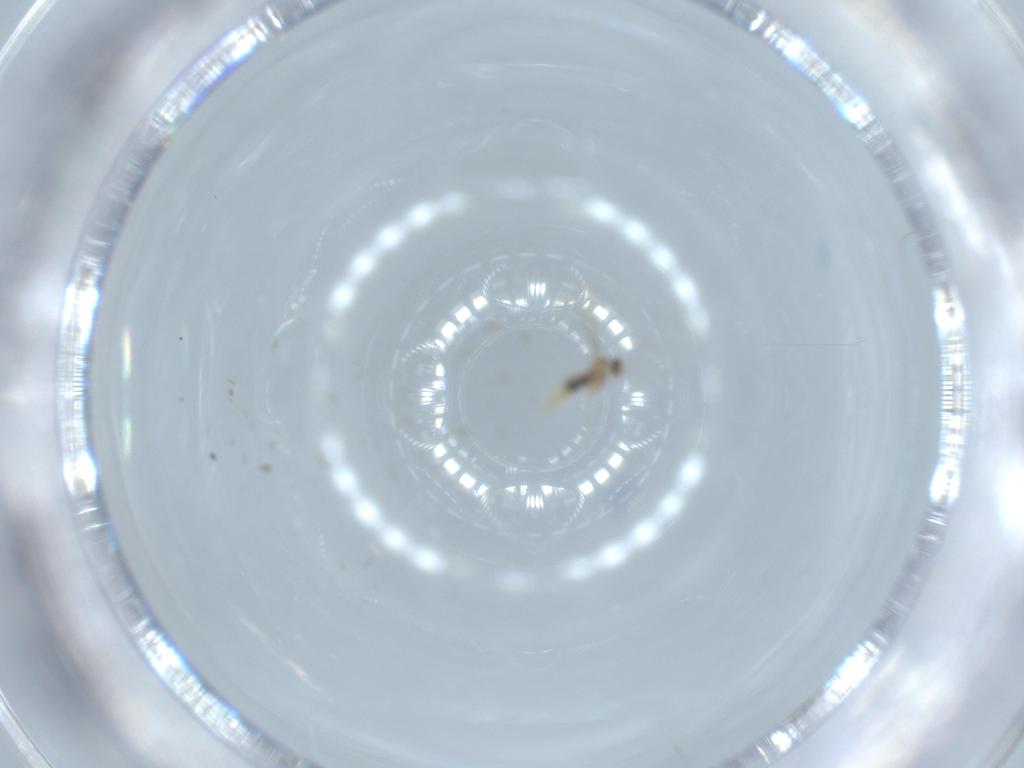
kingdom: Animalia
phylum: Arthropoda
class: Insecta
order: Diptera
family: Cecidomyiidae
